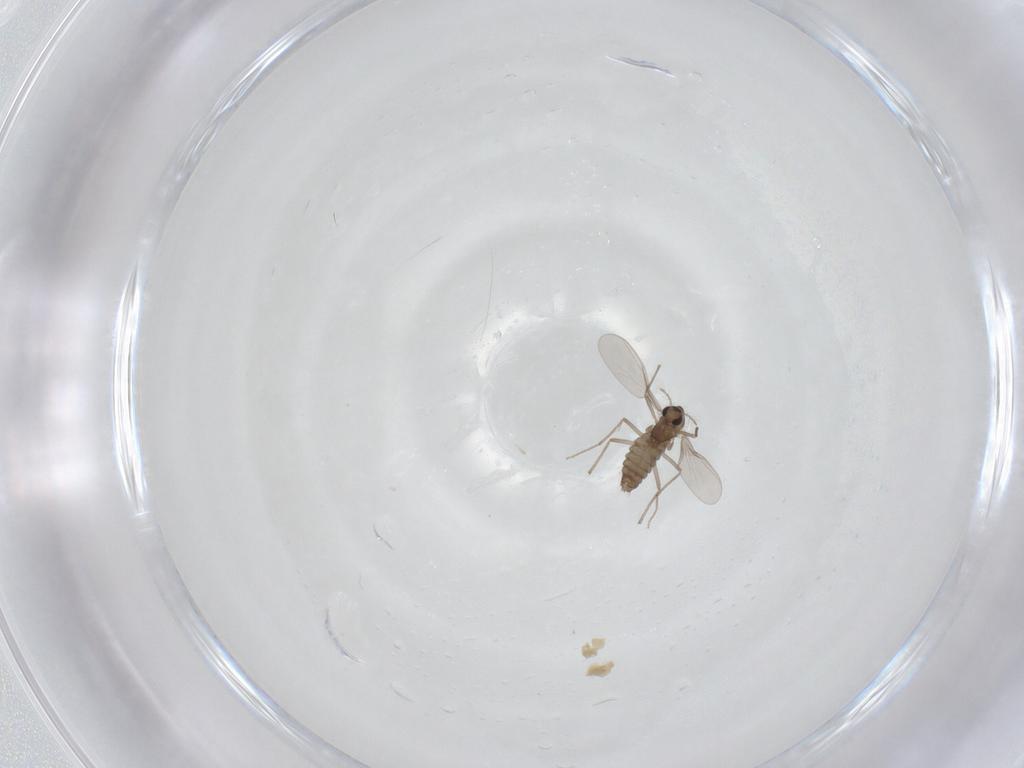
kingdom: Animalia
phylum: Arthropoda
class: Insecta
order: Diptera
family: Chironomidae
